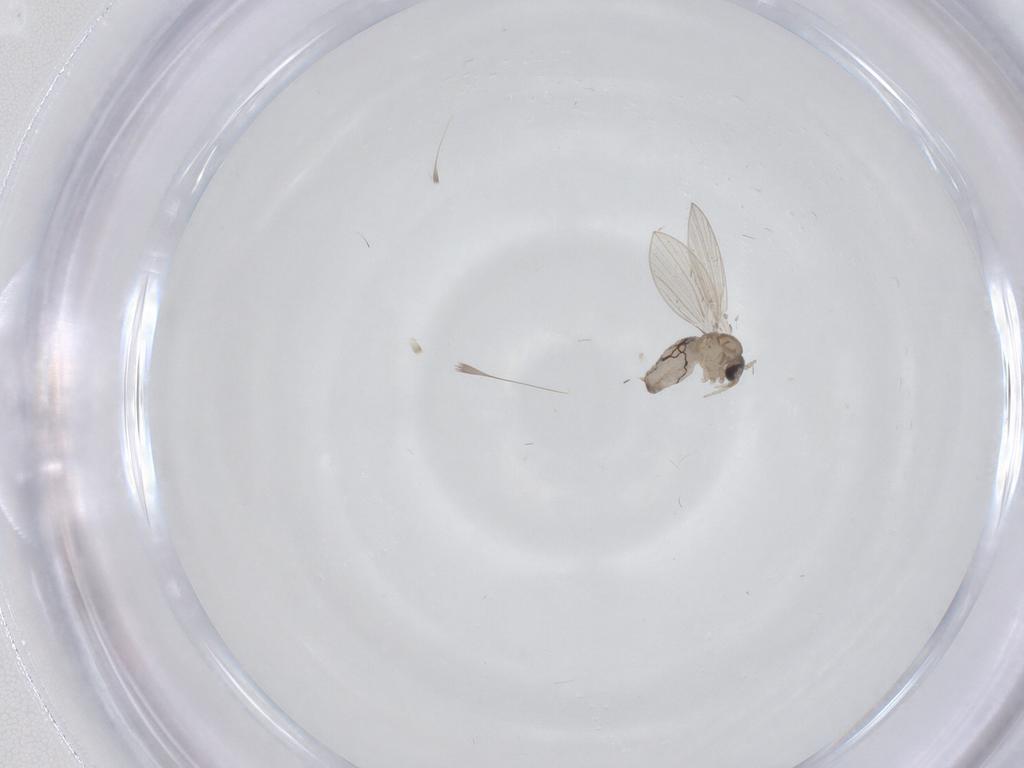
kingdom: Animalia
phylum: Arthropoda
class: Insecta
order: Diptera
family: Psychodidae
